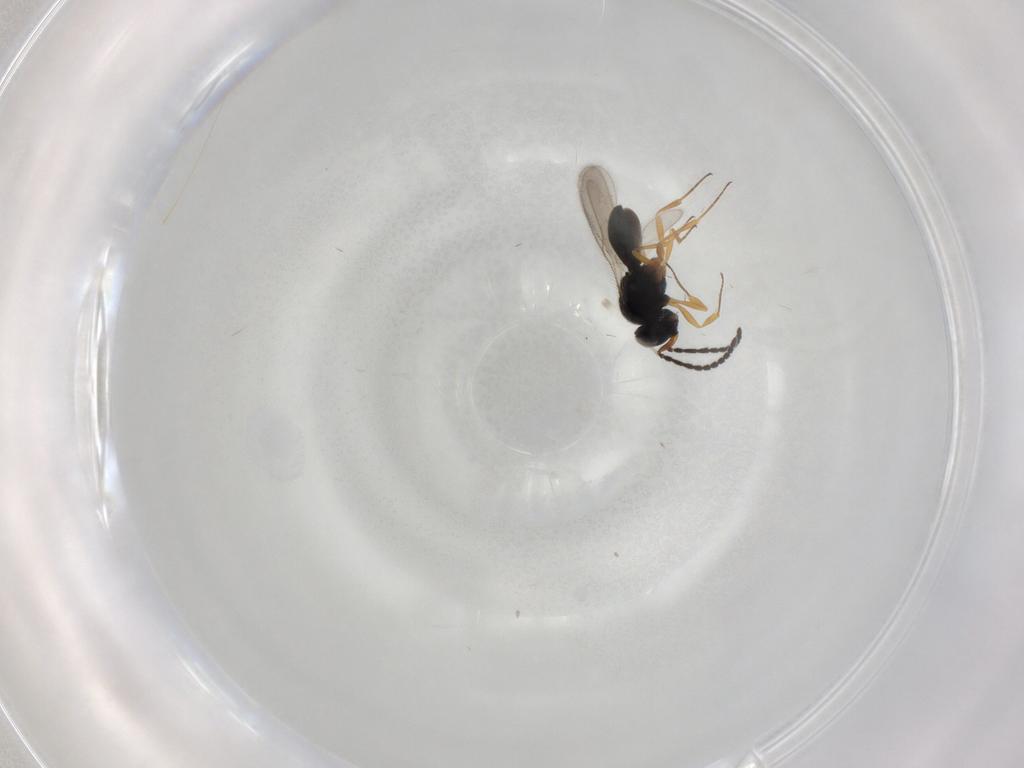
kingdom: Animalia
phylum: Arthropoda
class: Insecta
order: Hymenoptera
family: Scelionidae
